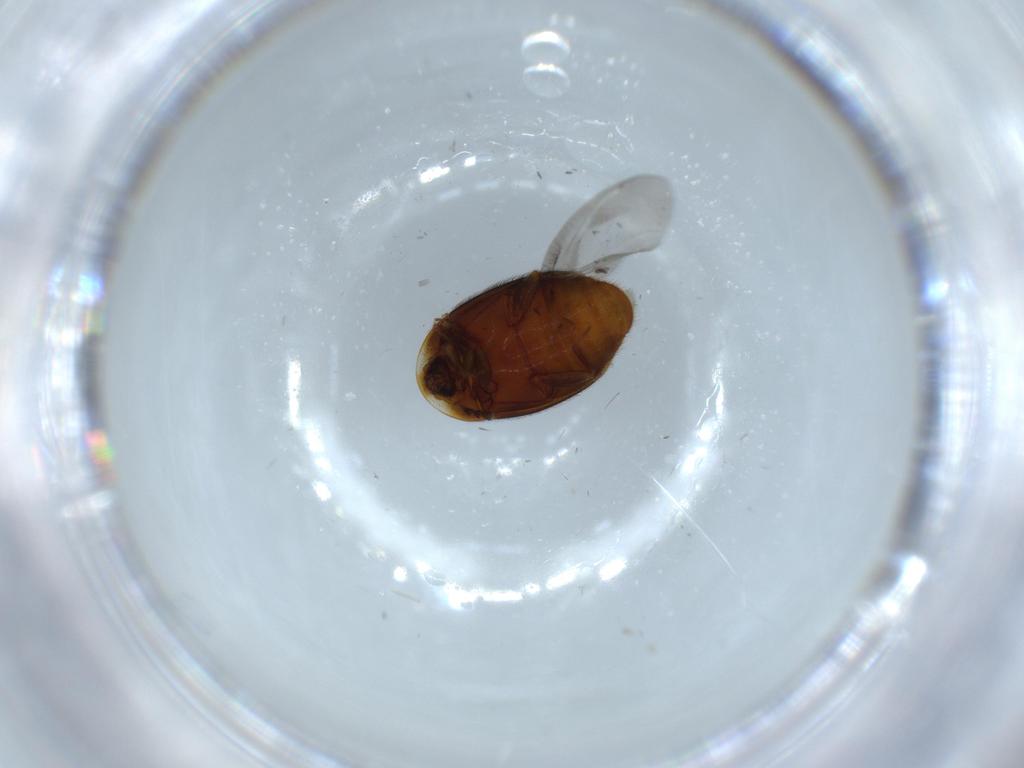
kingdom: Animalia
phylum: Arthropoda
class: Insecta
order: Coleoptera
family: Corylophidae
